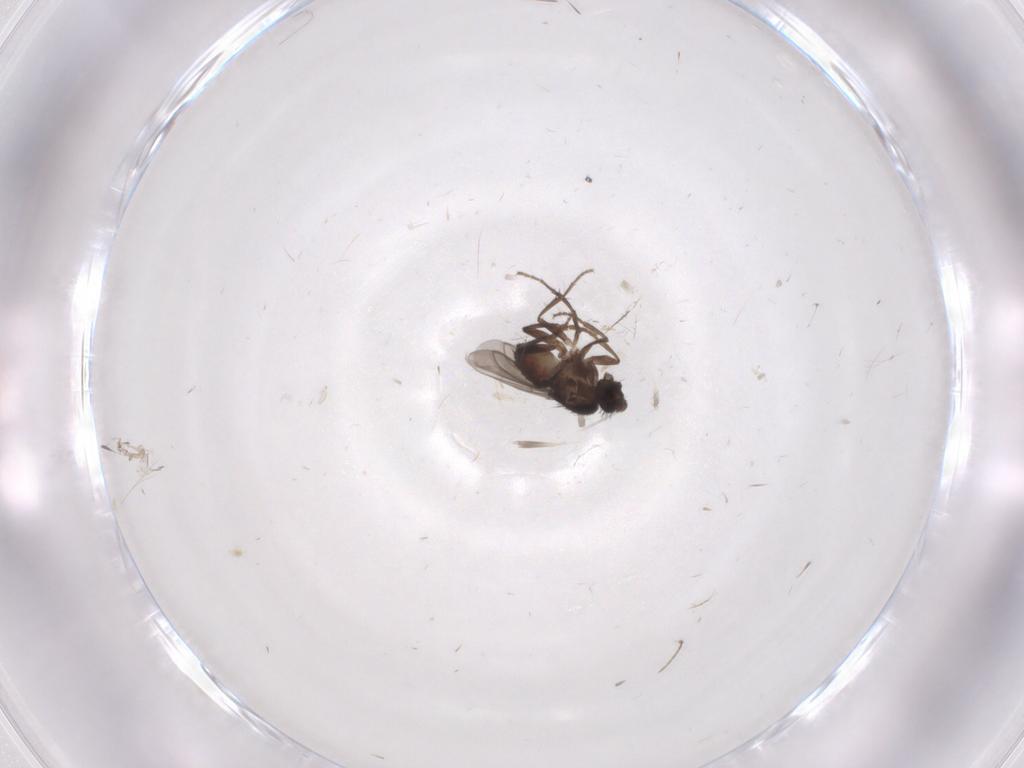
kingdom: Animalia
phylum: Arthropoda
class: Insecta
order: Diptera
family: Ceratopogonidae
